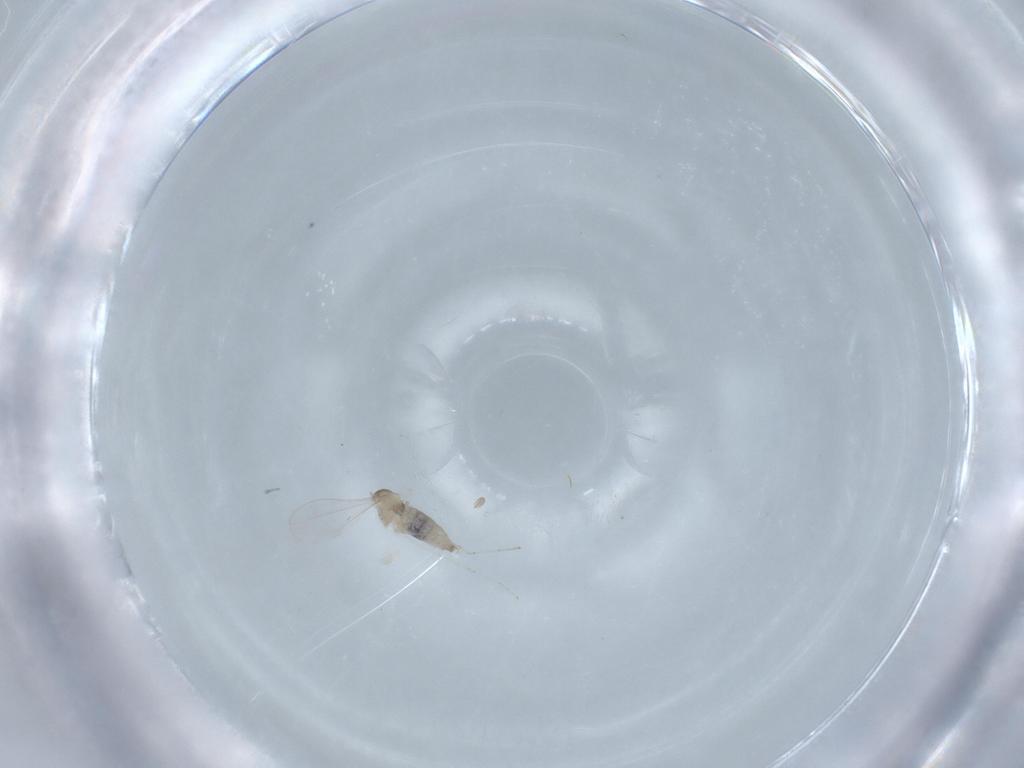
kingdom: Animalia
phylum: Arthropoda
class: Insecta
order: Diptera
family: Cecidomyiidae
